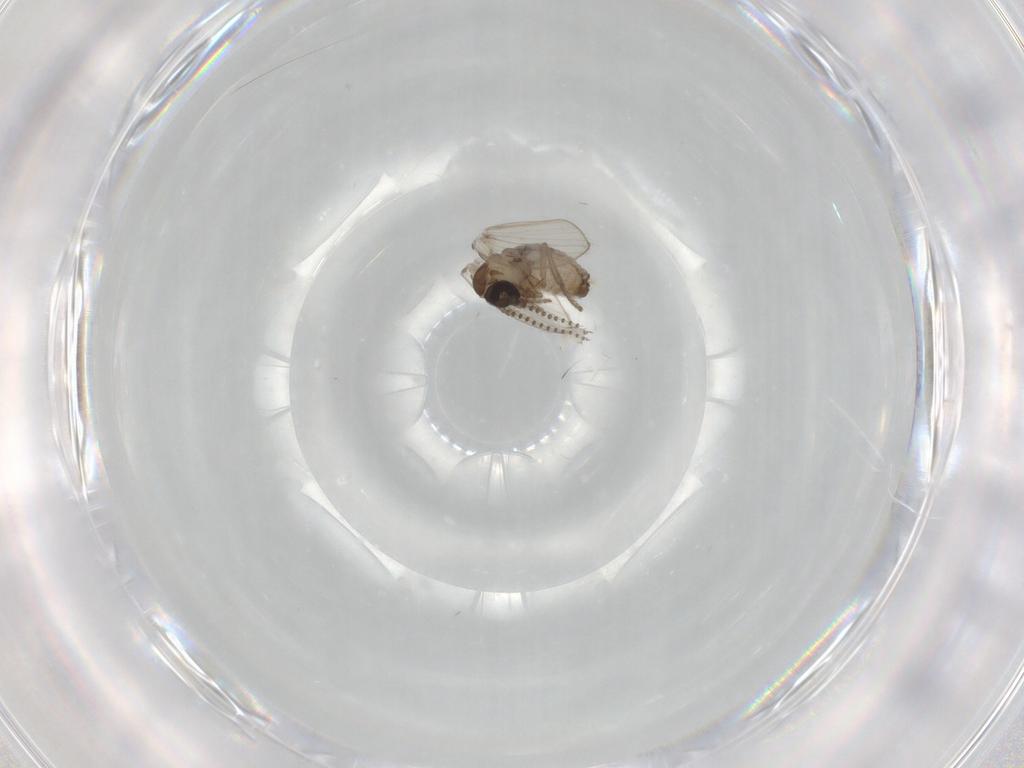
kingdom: Animalia
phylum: Arthropoda
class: Insecta
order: Diptera
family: Psychodidae
